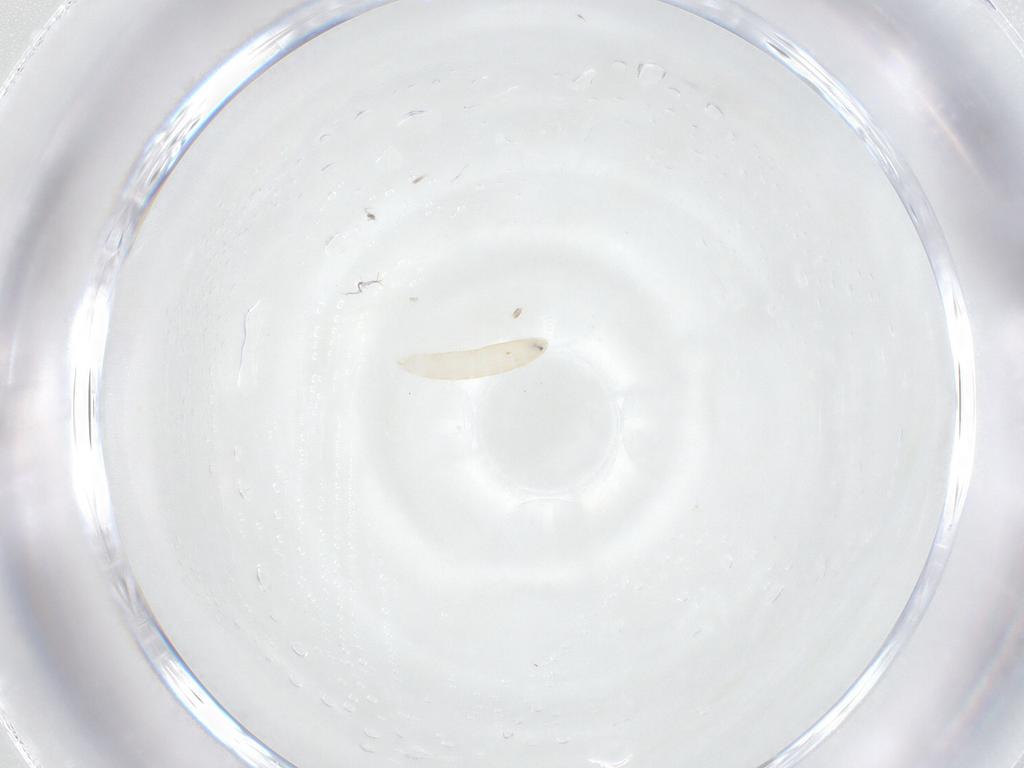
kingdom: Animalia
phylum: Arthropoda
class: Insecta
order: Diptera
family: Tachinidae
